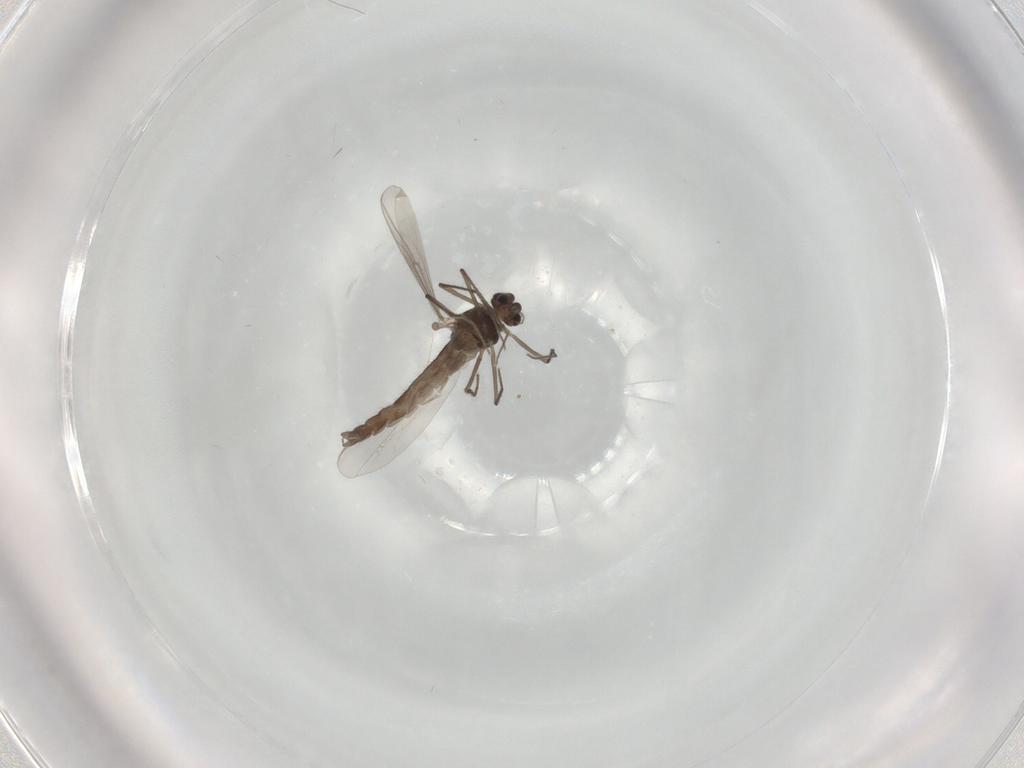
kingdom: Animalia
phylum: Arthropoda
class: Insecta
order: Diptera
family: Chironomidae
